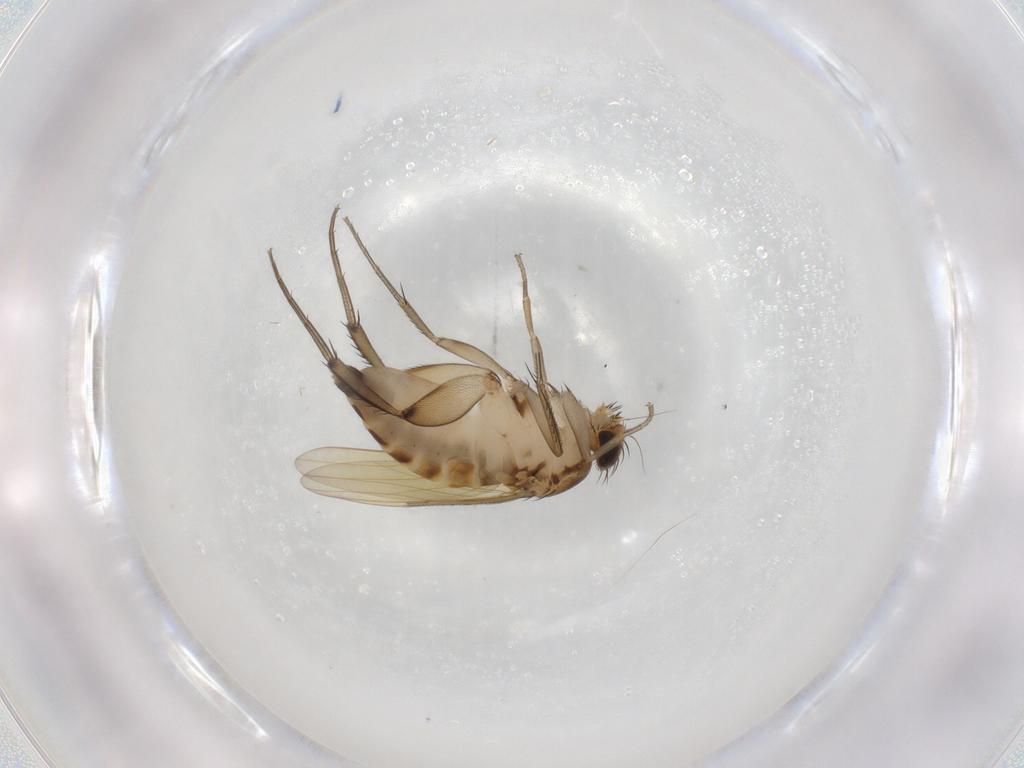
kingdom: Animalia
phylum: Arthropoda
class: Insecta
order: Diptera
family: Phoridae
